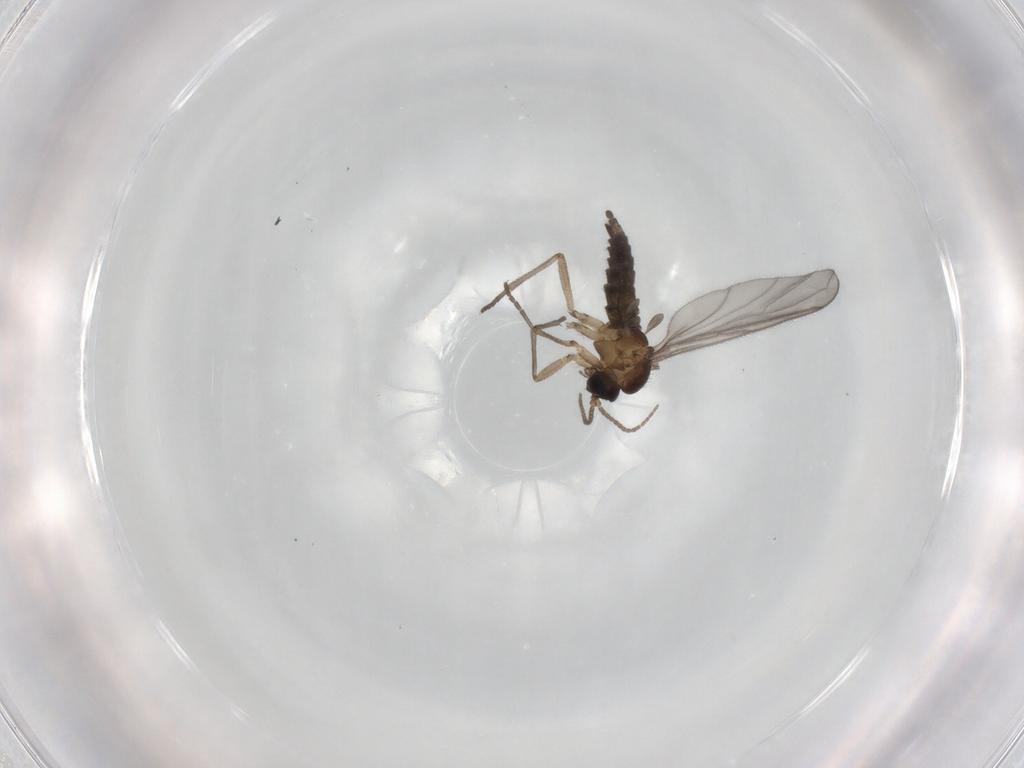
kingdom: Animalia
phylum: Arthropoda
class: Insecta
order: Diptera
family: Sciaridae
